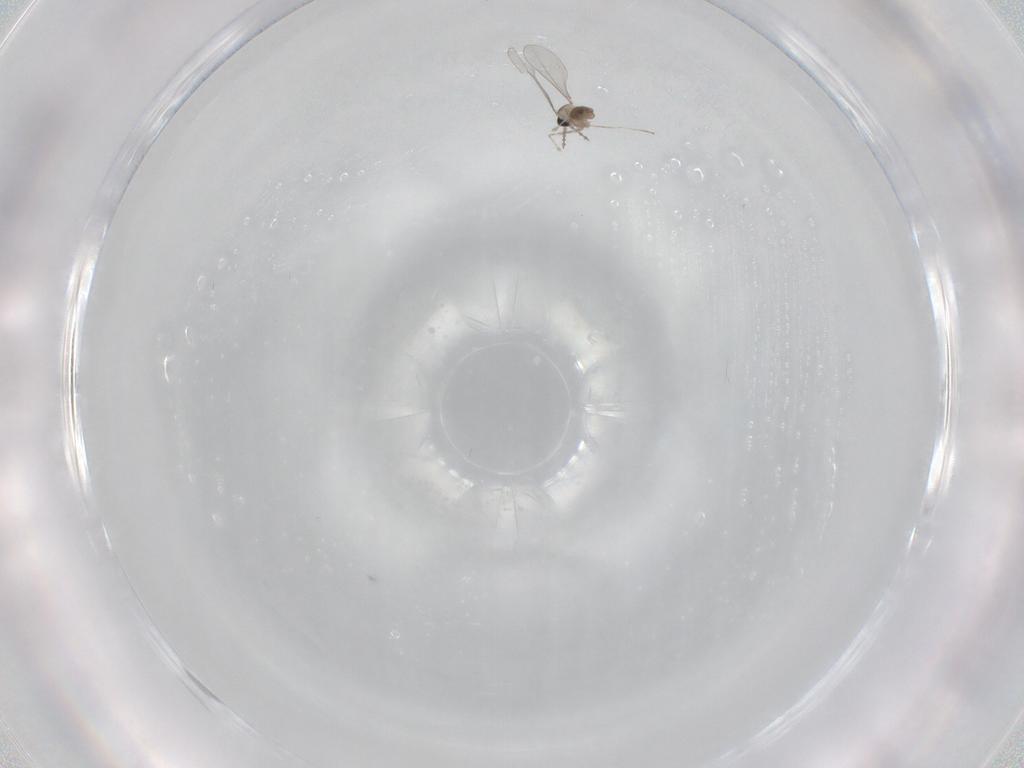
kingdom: Animalia
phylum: Arthropoda
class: Insecta
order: Diptera
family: Cecidomyiidae
